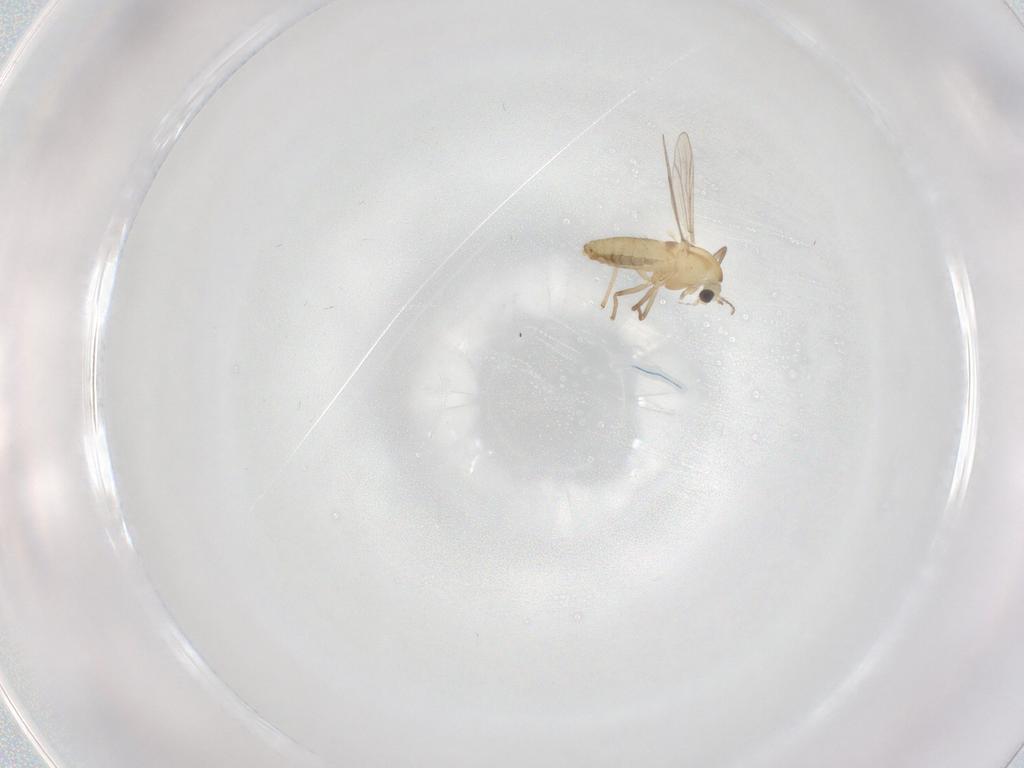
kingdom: Animalia
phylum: Arthropoda
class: Insecta
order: Diptera
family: Chironomidae
